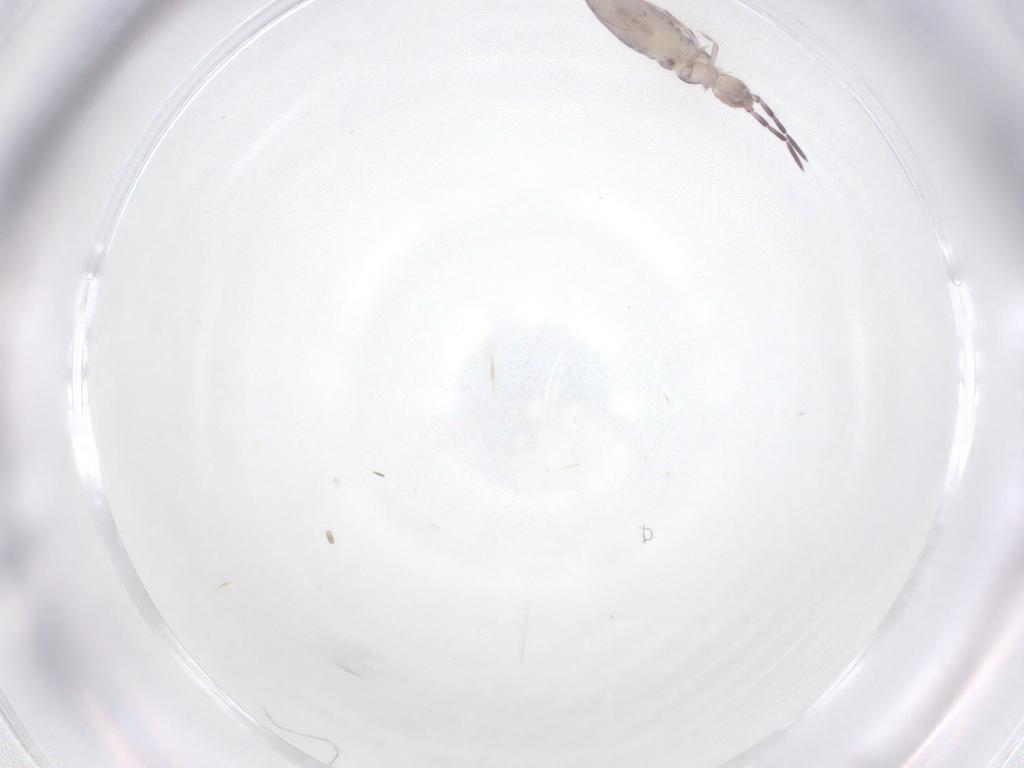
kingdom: Animalia
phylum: Arthropoda
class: Collembola
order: Poduromorpha
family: Hypogastruridae
